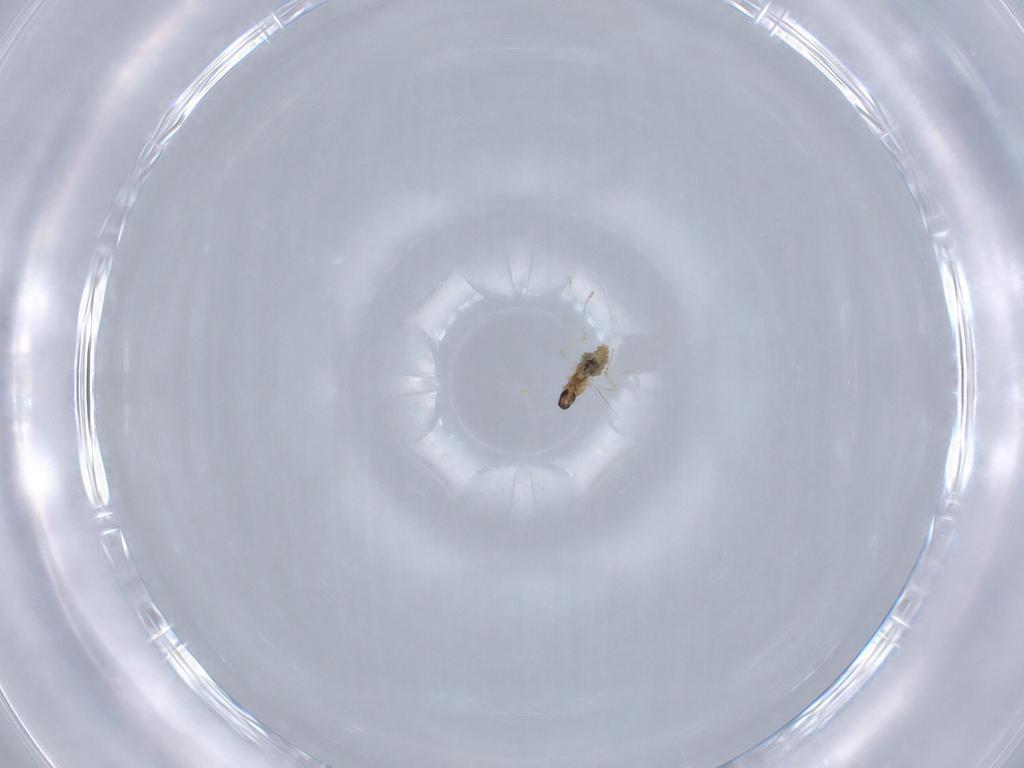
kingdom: Animalia
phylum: Arthropoda
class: Insecta
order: Diptera
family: Cecidomyiidae
